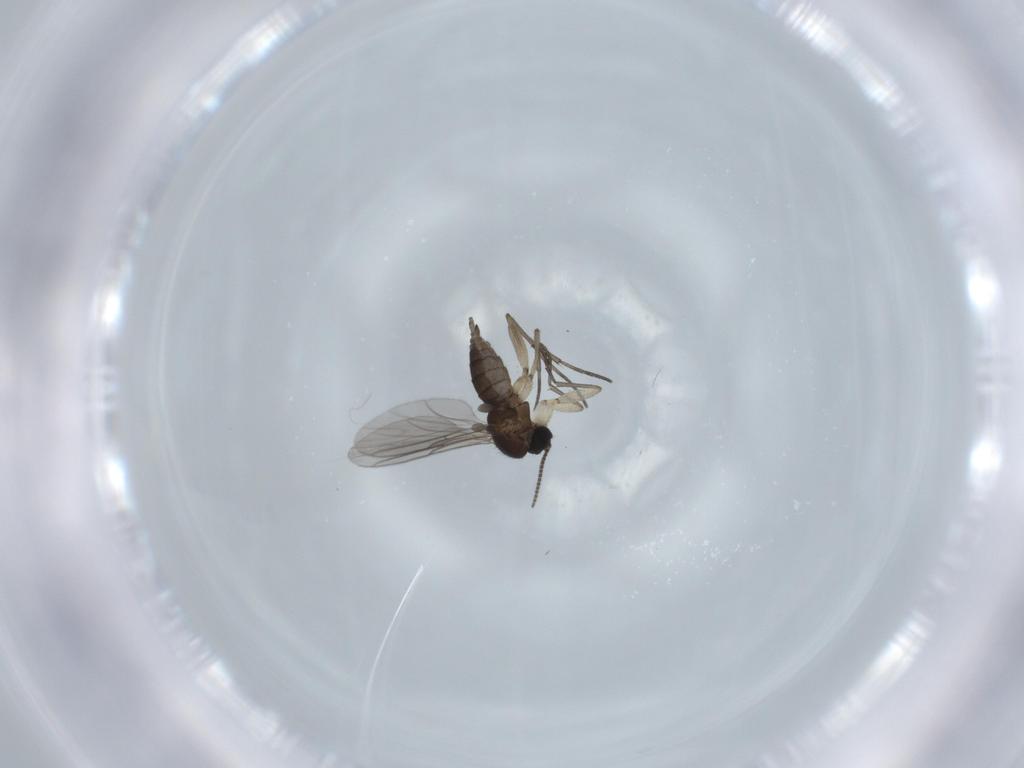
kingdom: Animalia
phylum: Arthropoda
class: Insecta
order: Diptera
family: Sciaridae
